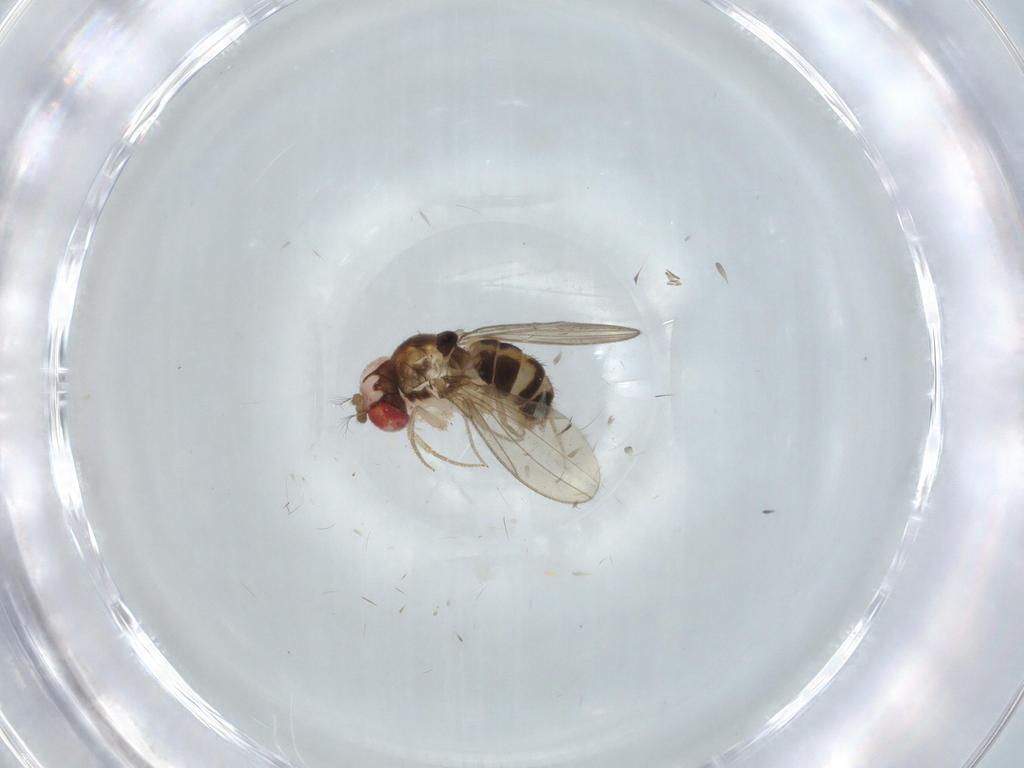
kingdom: Animalia
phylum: Arthropoda
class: Insecta
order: Diptera
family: Drosophilidae
